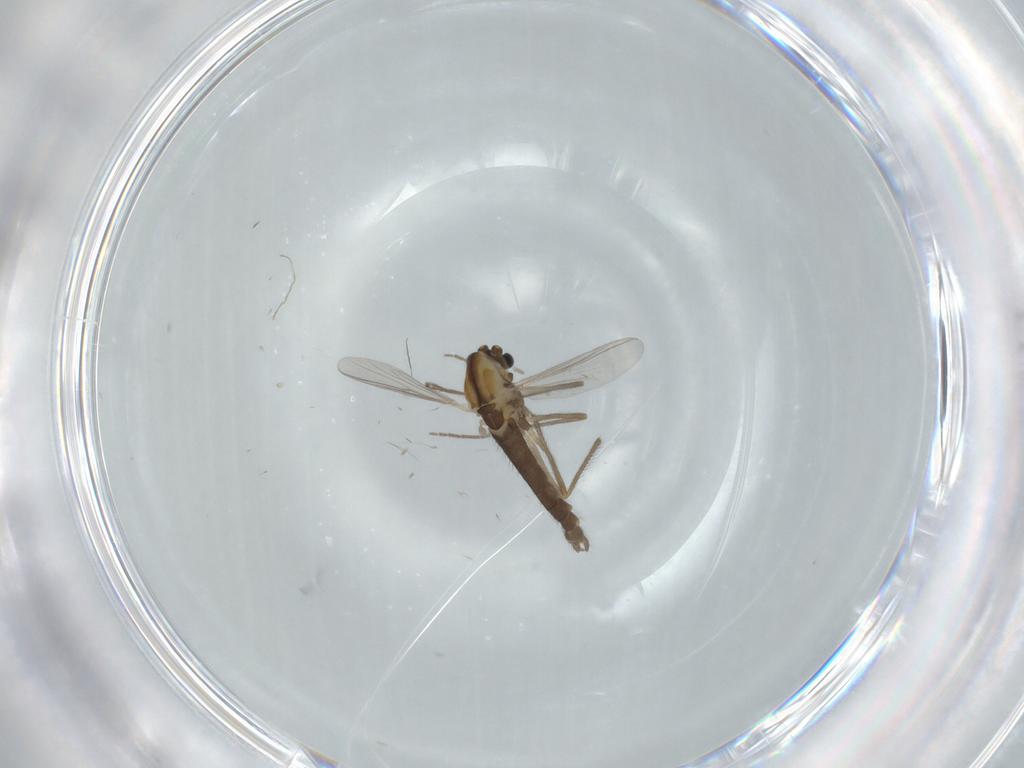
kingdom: Animalia
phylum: Arthropoda
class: Insecta
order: Diptera
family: Chironomidae
